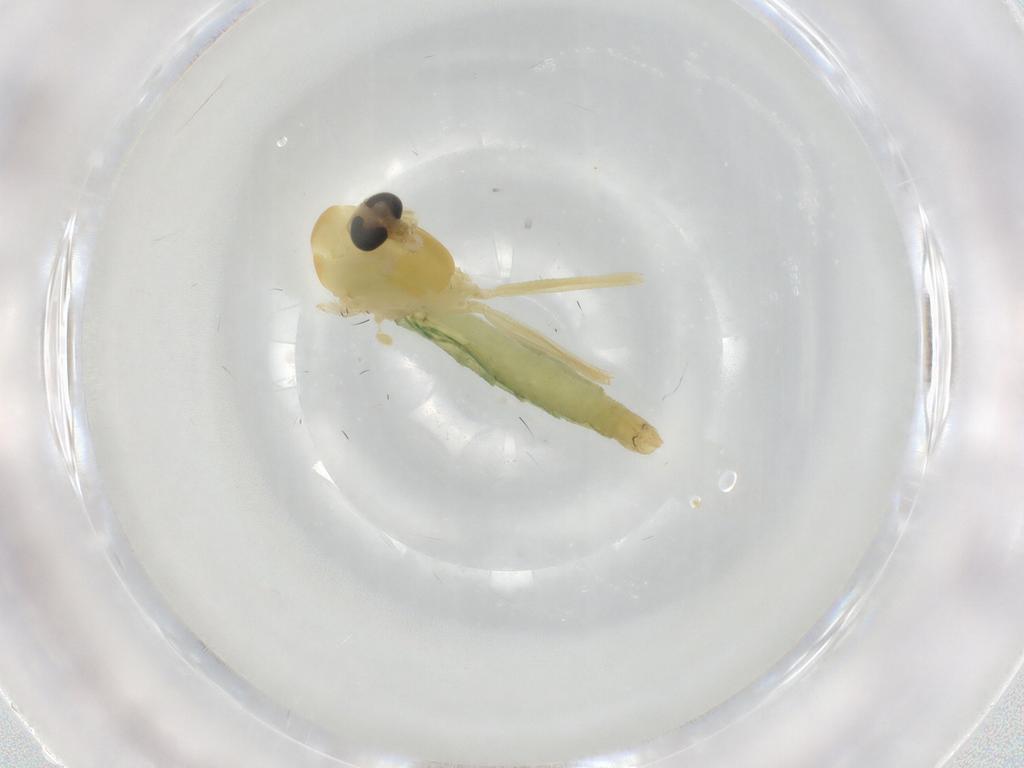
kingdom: Animalia
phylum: Arthropoda
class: Insecta
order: Diptera
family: Chironomidae
